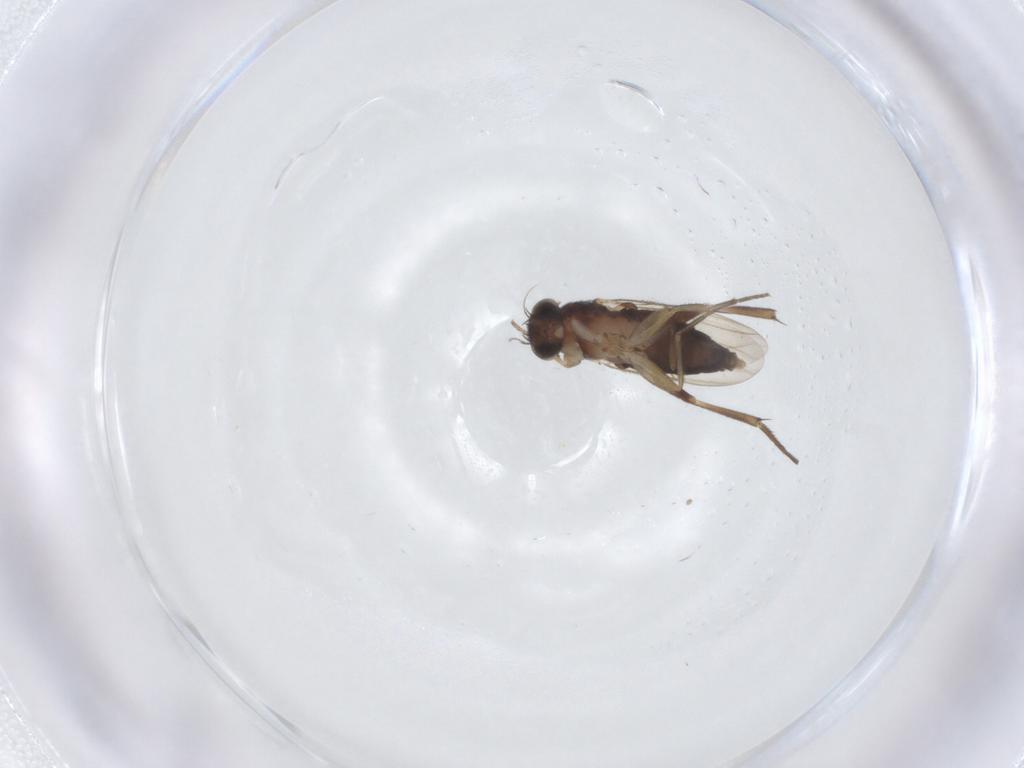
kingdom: Animalia
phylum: Arthropoda
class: Insecta
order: Diptera
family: Phoridae
